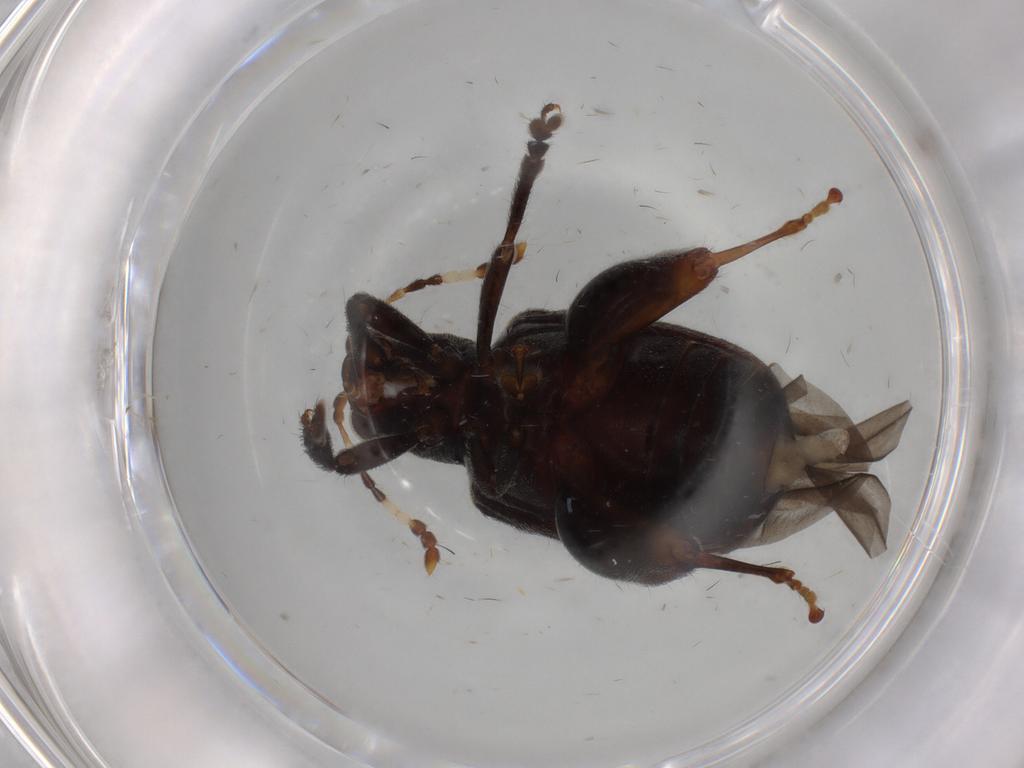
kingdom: Animalia
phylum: Arthropoda
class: Insecta
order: Coleoptera
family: Chrysomelidae
